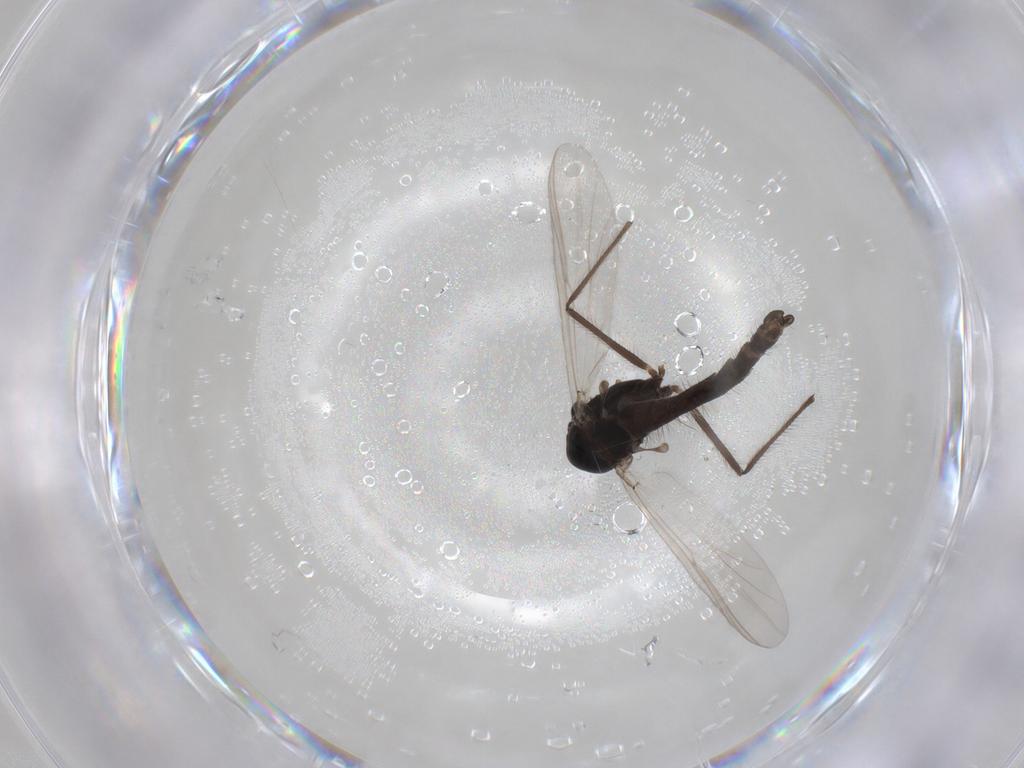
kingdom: Animalia
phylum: Arthropoda
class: Insecta
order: Diptera
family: Chironomidae
